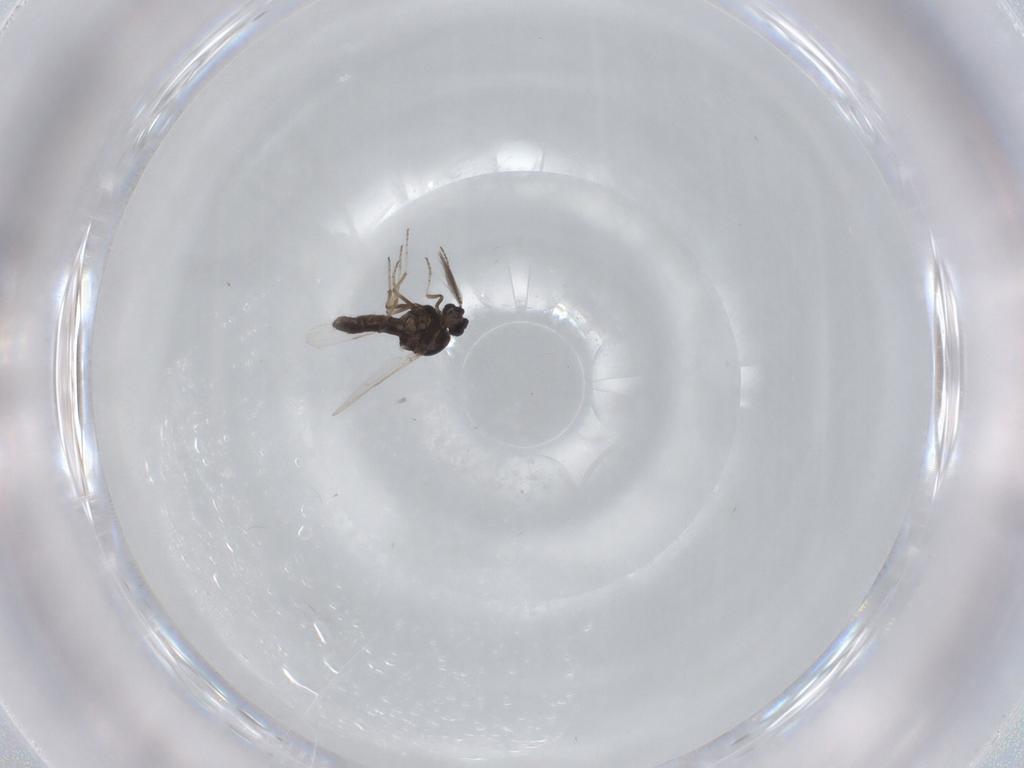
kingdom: Animalia
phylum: Arthropoda
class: Insecta
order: Diptera
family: Ceratopogonidae
